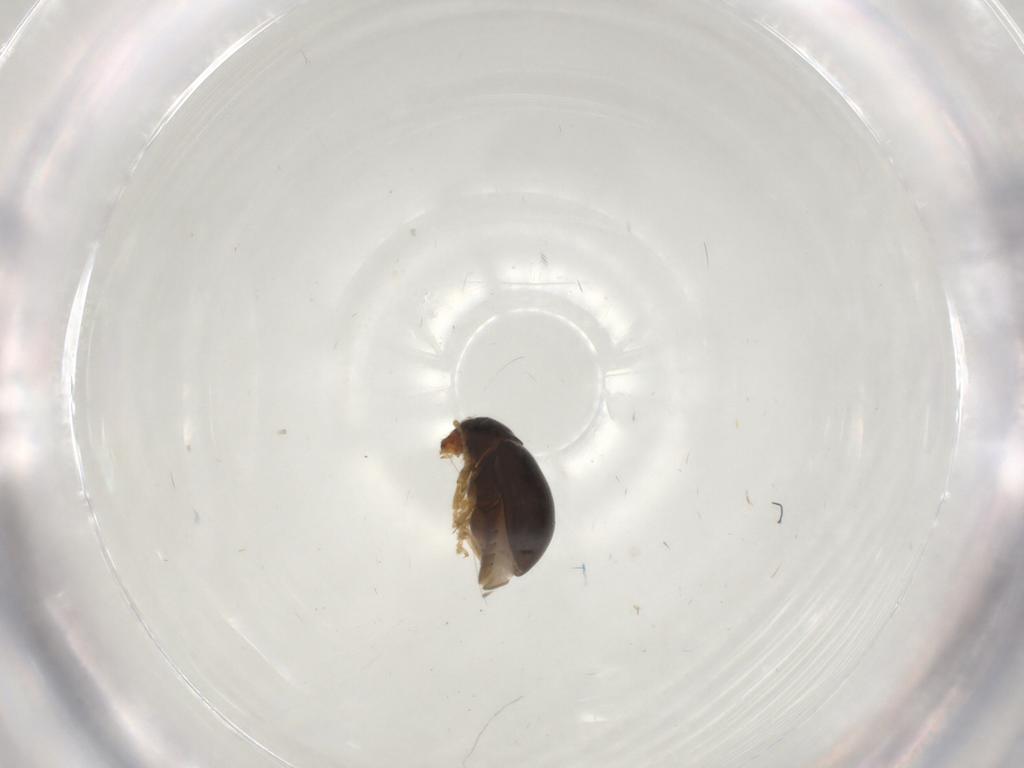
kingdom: Animalia
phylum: Arthropoda
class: Insecta
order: Coleoptera
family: Chrysomelidae
